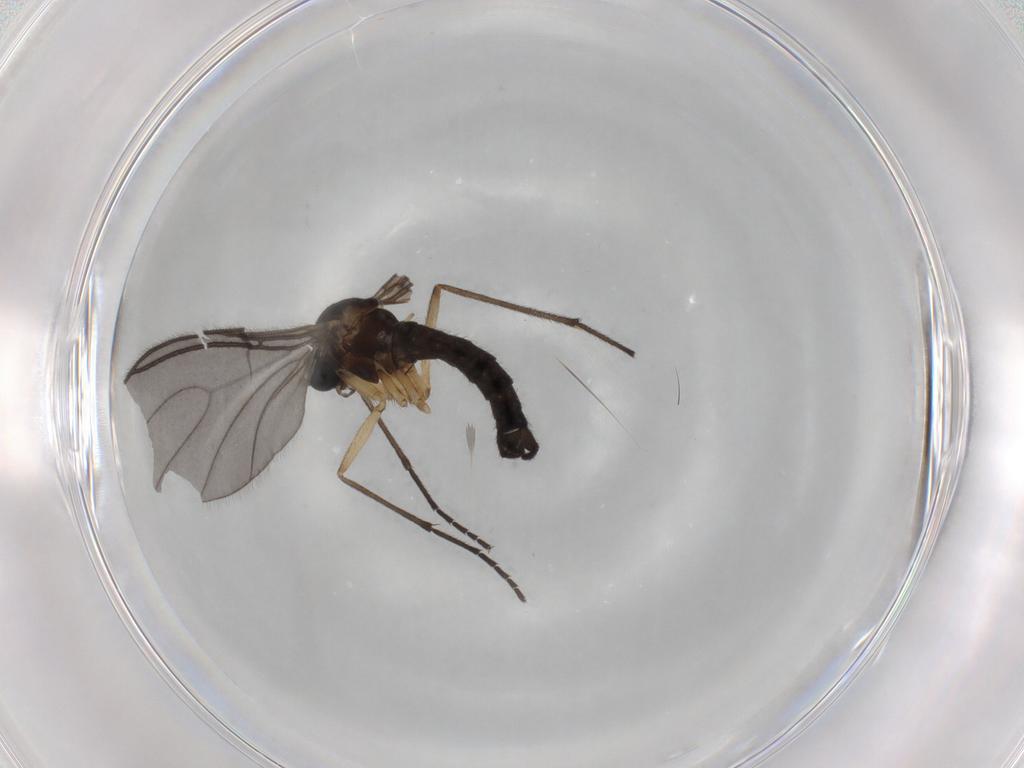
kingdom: Animalia
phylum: Arthropoda
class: Insecta
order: Diptera
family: Sciaridae
